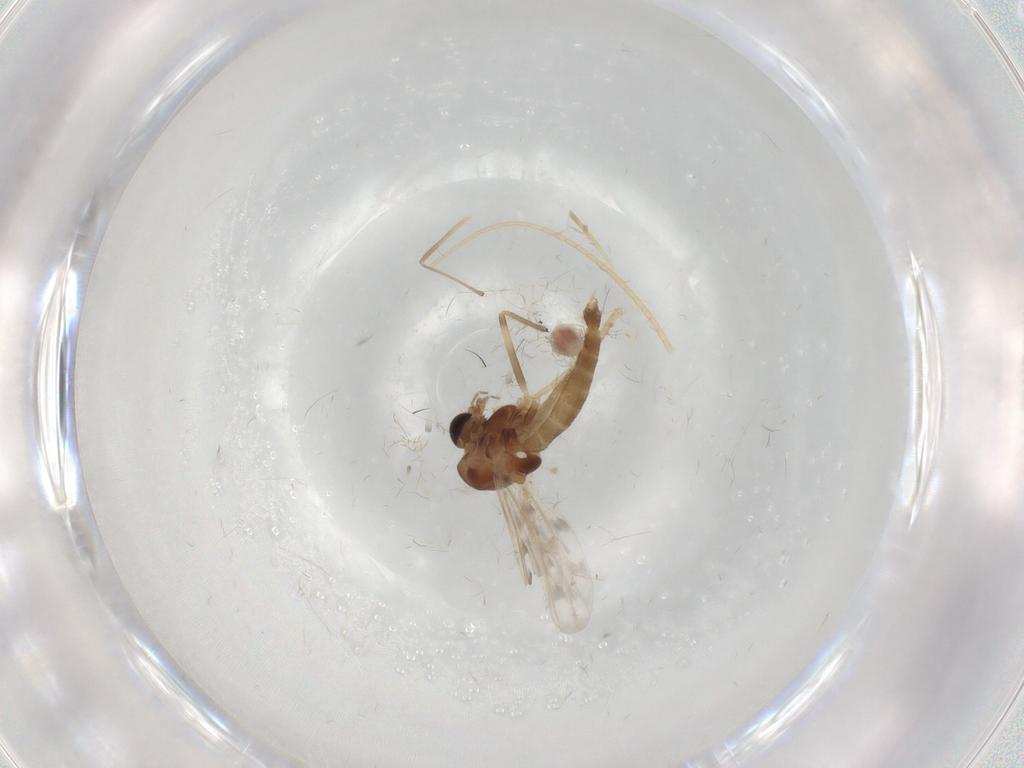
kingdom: Animalia
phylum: Arthropoda
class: Insecta
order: Diptera
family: Chironomidae
